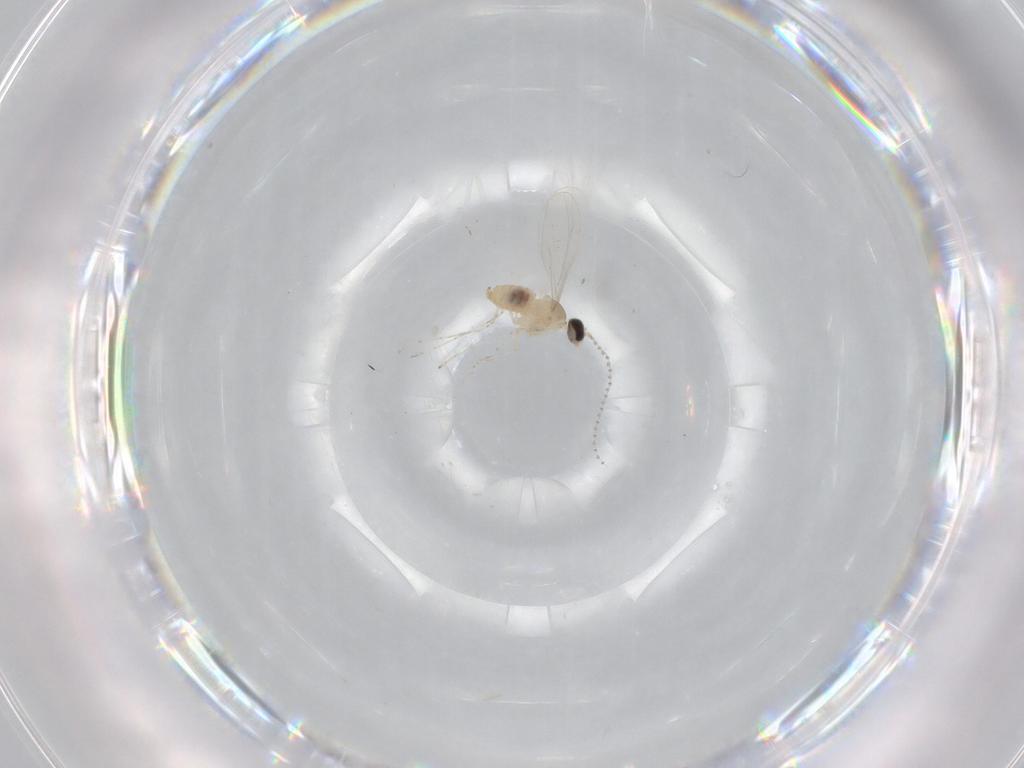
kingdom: Animalia
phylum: Arthropoda
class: Insecta
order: Diptera
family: Cecidomyiidae
